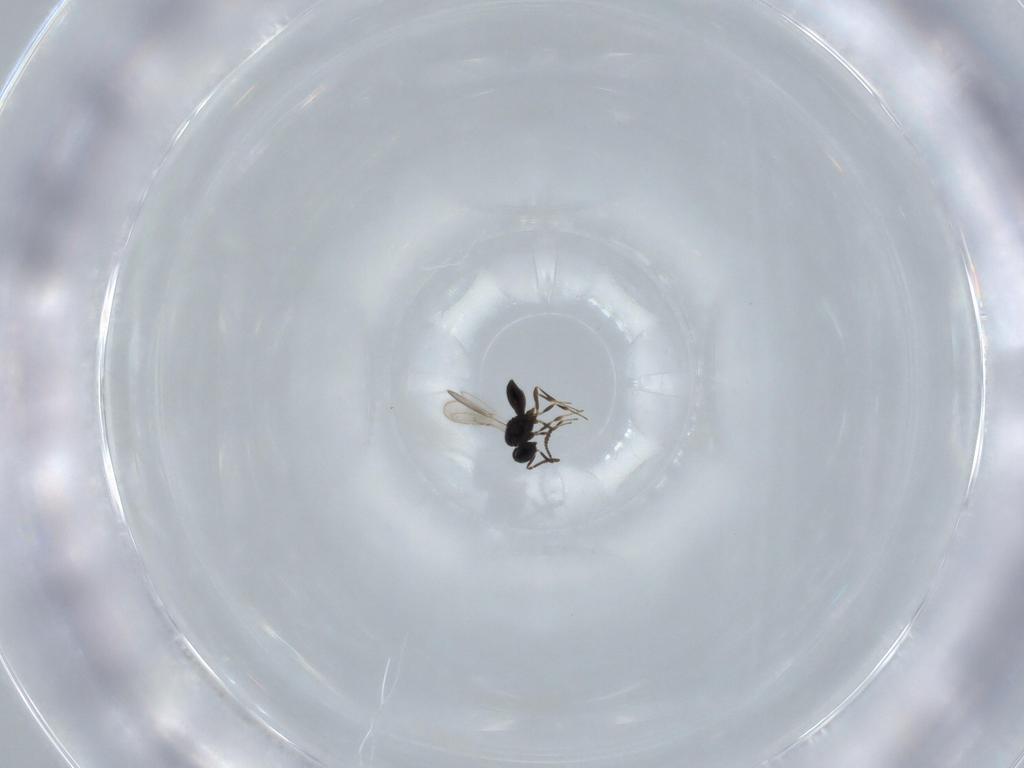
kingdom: Animalia
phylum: Arthropoda
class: Insecta
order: Hymenoptera
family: Scelionidae
